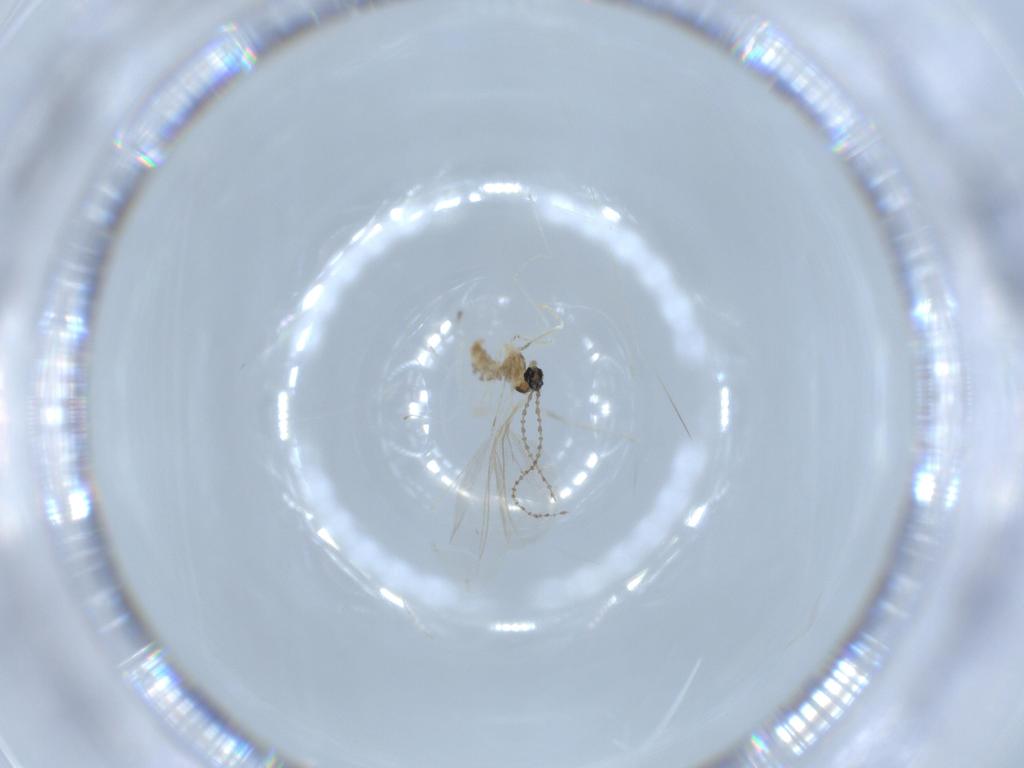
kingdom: Animalia
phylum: Arthropoda
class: Insecta
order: Diptera
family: Cecidomyiidae
